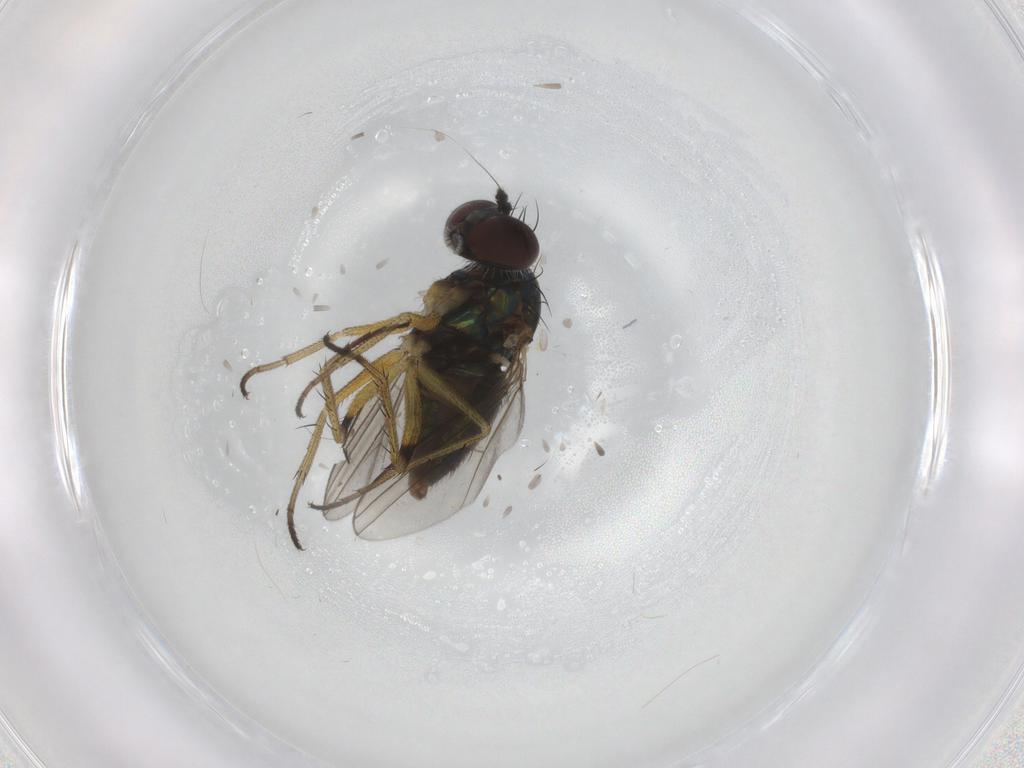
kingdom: Animalia
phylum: Arthropoda
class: Insecta
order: Diptera
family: Dolichopodidae
